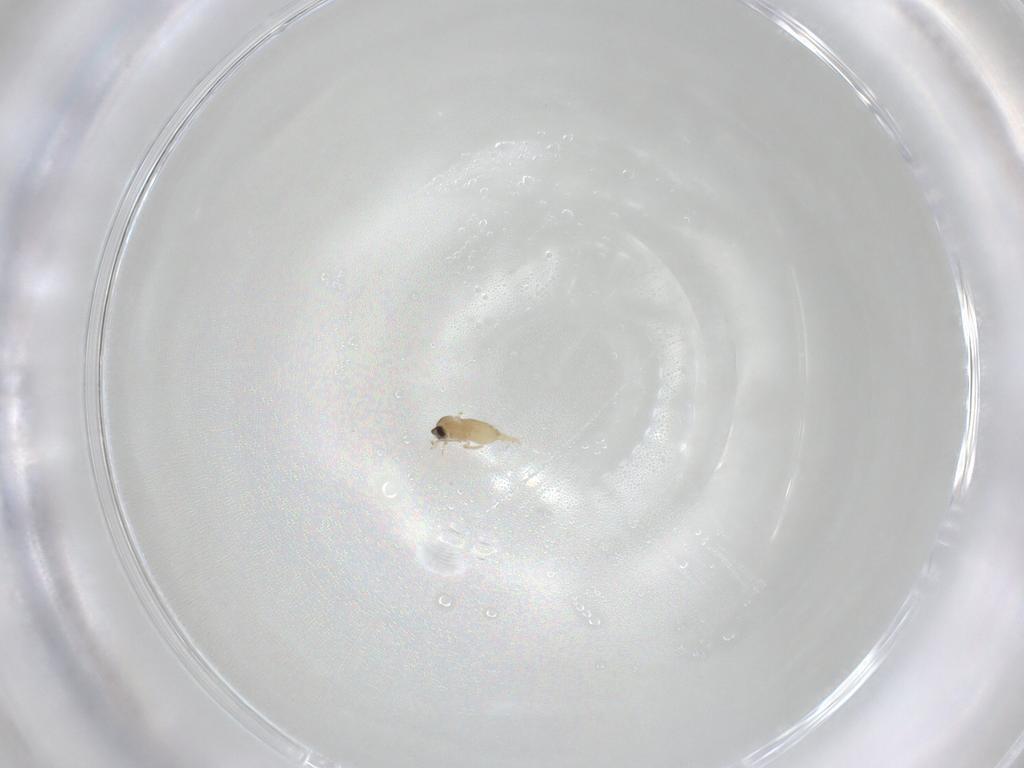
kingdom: Animalia
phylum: Arthropoda
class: Insecta
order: Diptera
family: Cecidomyiidae
